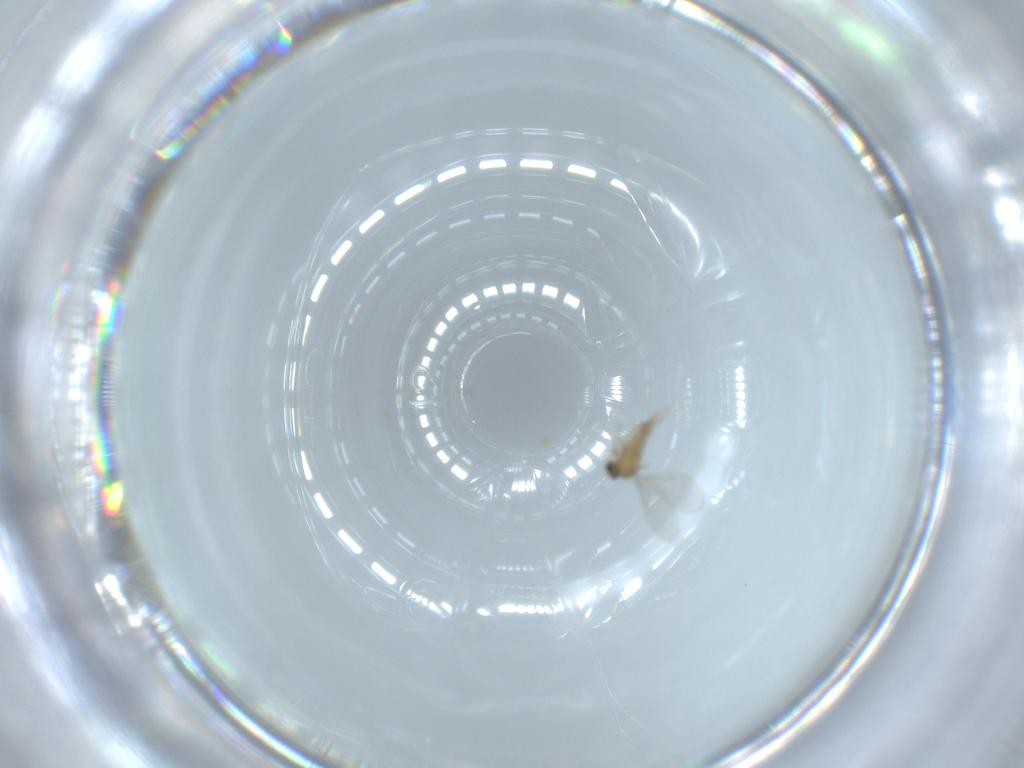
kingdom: Animalia
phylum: Arthropoda
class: Insecta
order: Diptera
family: Cecidomyiidae
